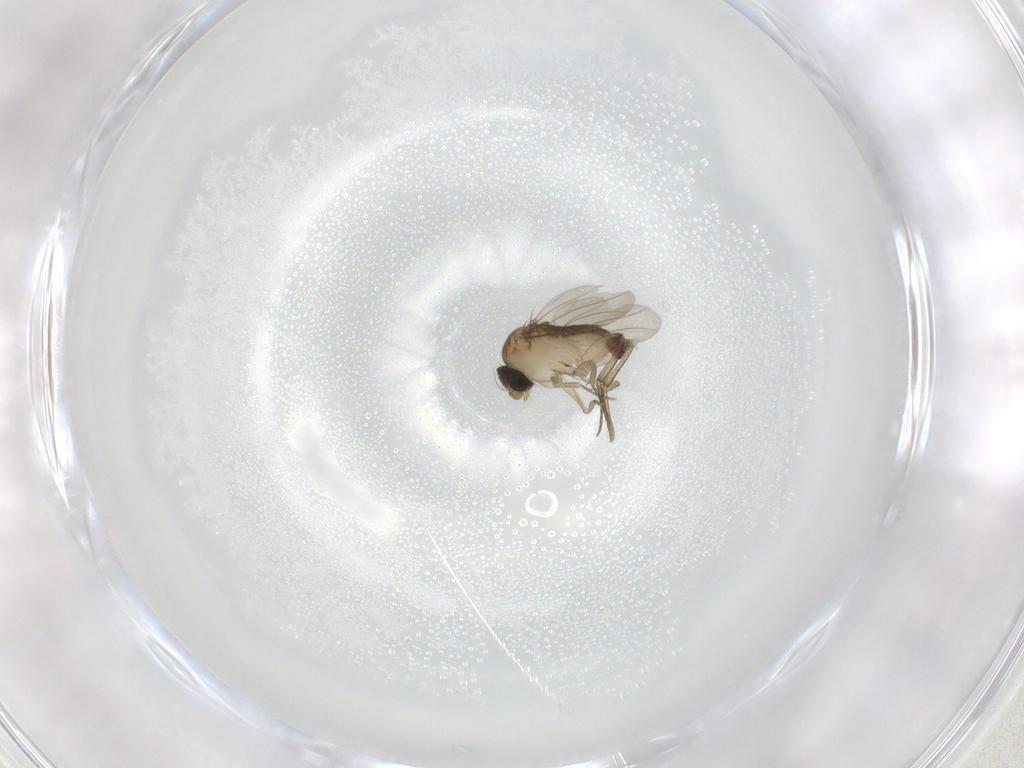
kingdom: Animalia
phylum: Arthropoda
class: Insecta
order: Diptera
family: Phoridae
